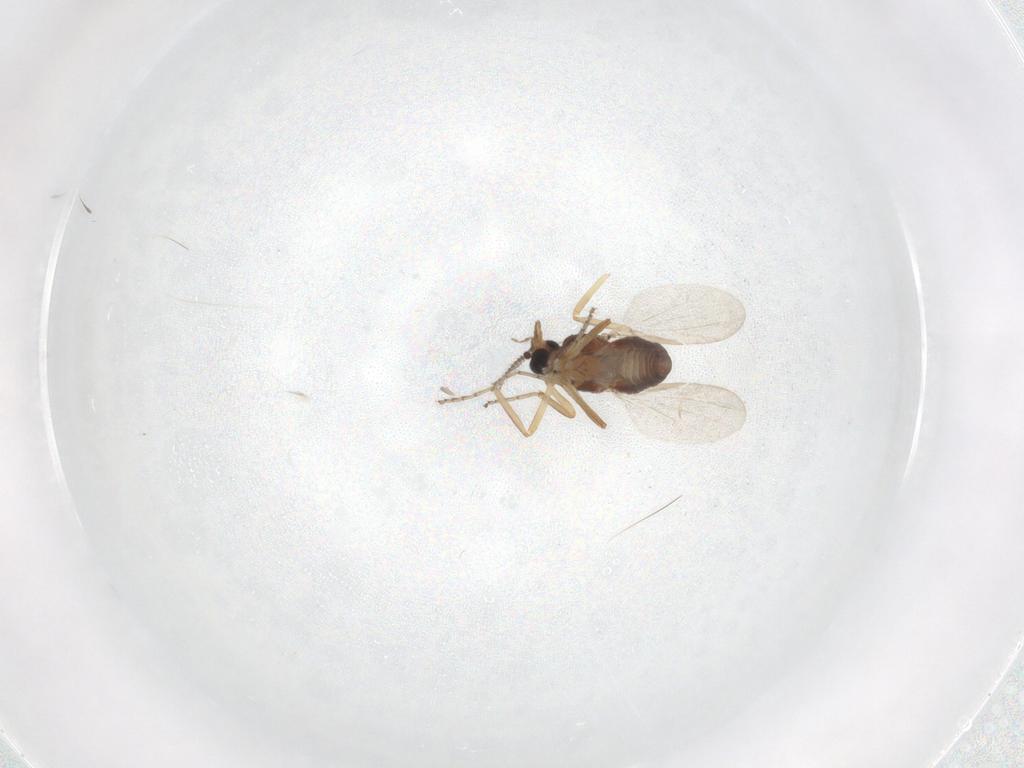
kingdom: Animalia
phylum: Arthropoda
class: Insecta
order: Diptera
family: Ceratopogonidae
